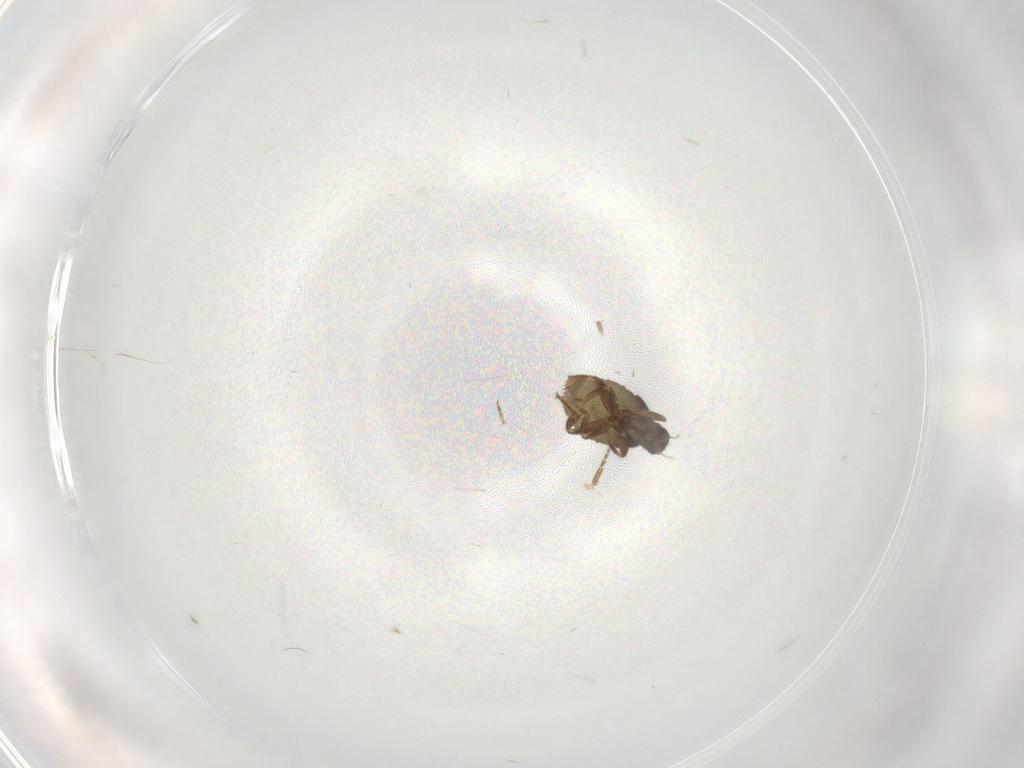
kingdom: Animalia
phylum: Arthropoda
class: Insecta
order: Diptera
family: Phoridae
